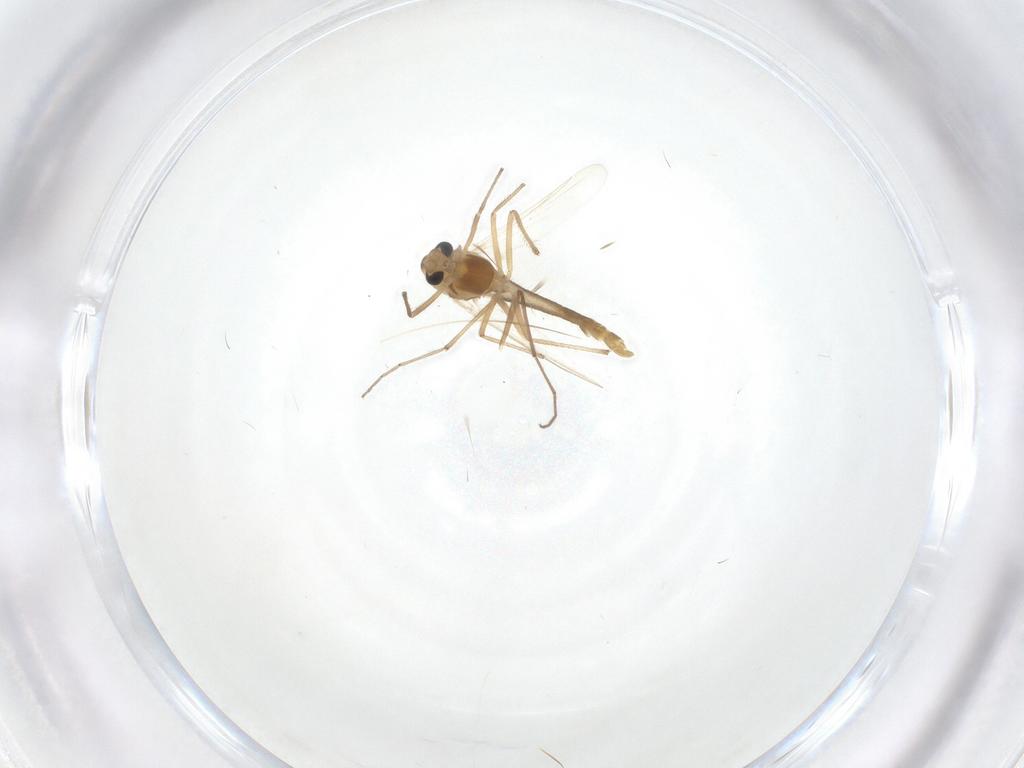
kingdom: Animalia
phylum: Arthropoda
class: Insecta
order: Diptera
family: Chironomidae
